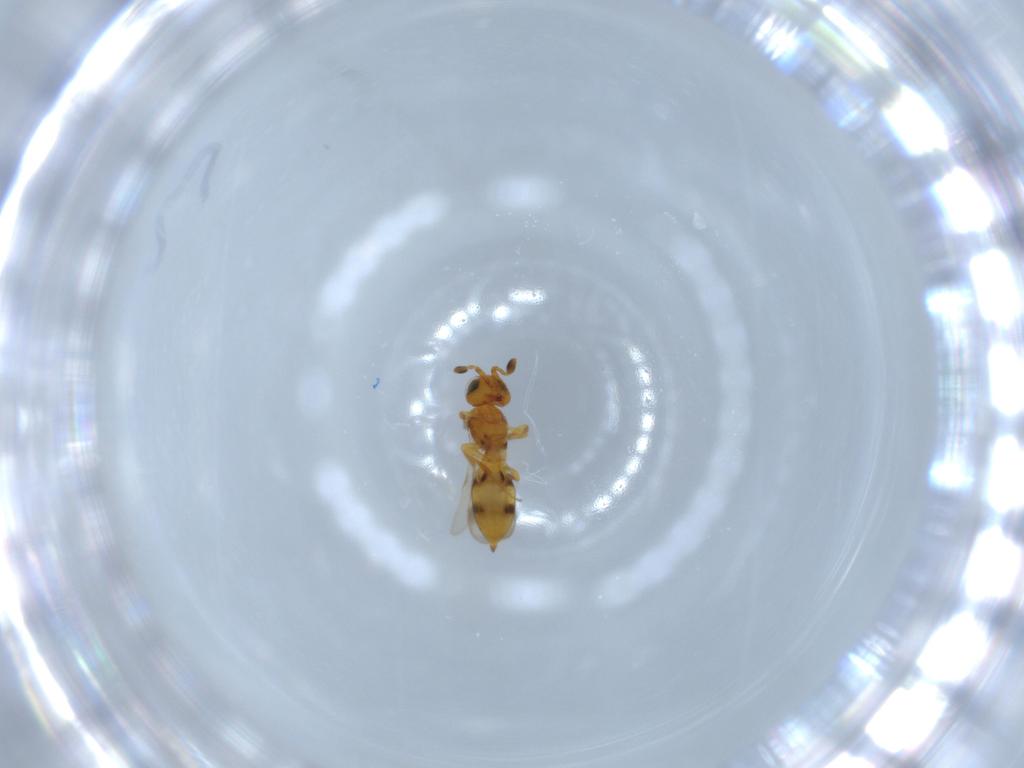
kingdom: Animalia
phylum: Arthropoda
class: Insecta
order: Hymenoptera
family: Scelionidae
